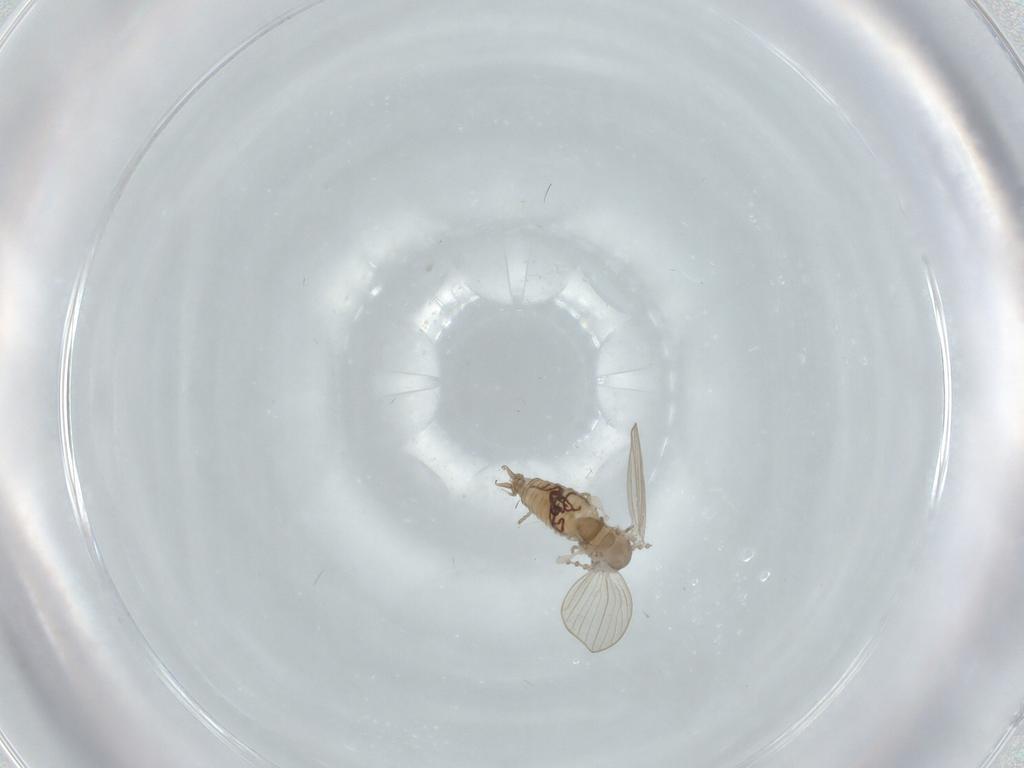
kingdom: Animalia
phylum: Arthropoda
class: Insecta
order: Diptera
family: Psychodidae
